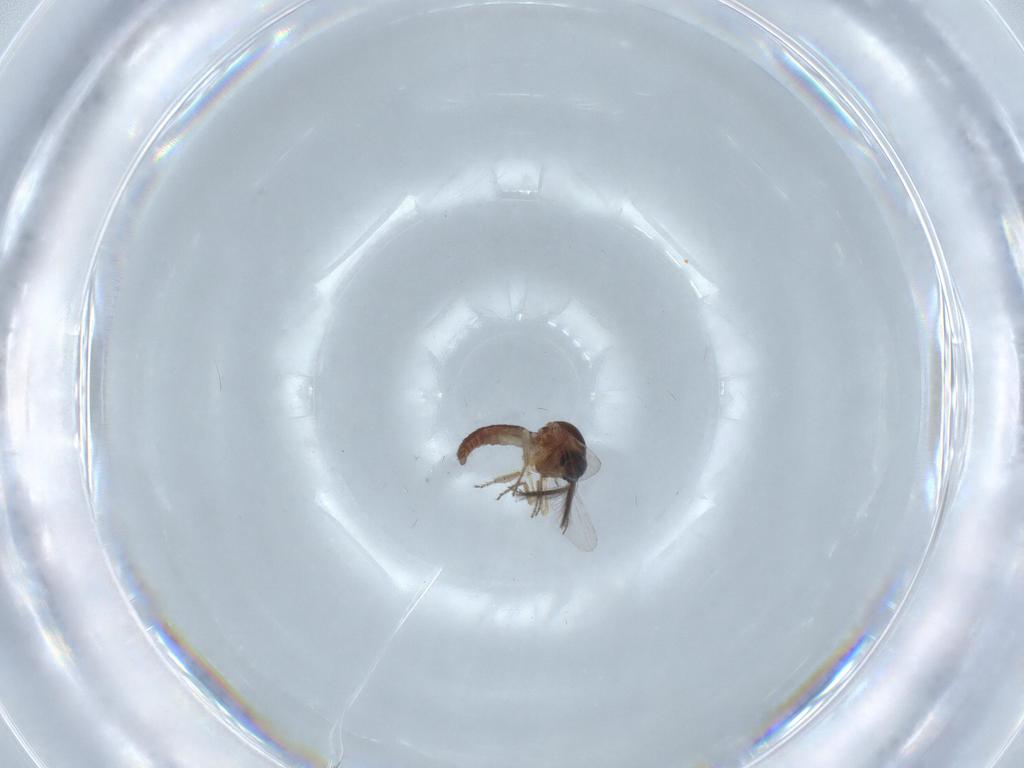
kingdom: Animalia
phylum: Arthropoda
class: Insecta
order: Diptera
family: Ceratopogonidae
